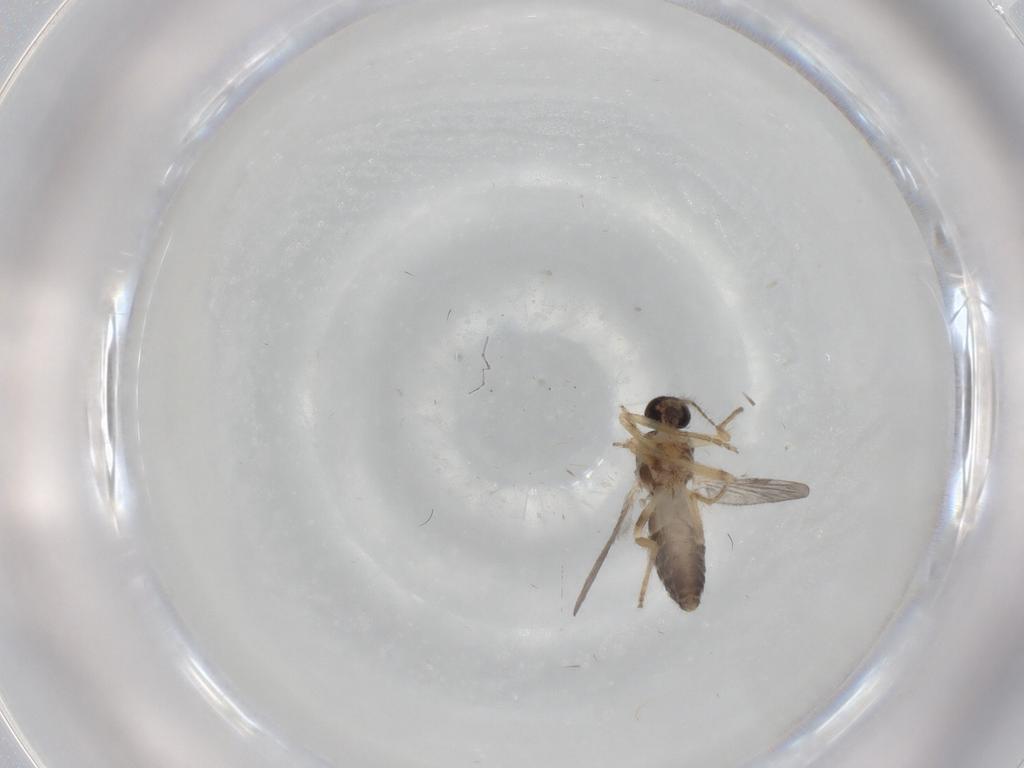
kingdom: Animalia
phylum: Arthropoda
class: Insecta
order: Diptera
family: Ceratopogonidae
